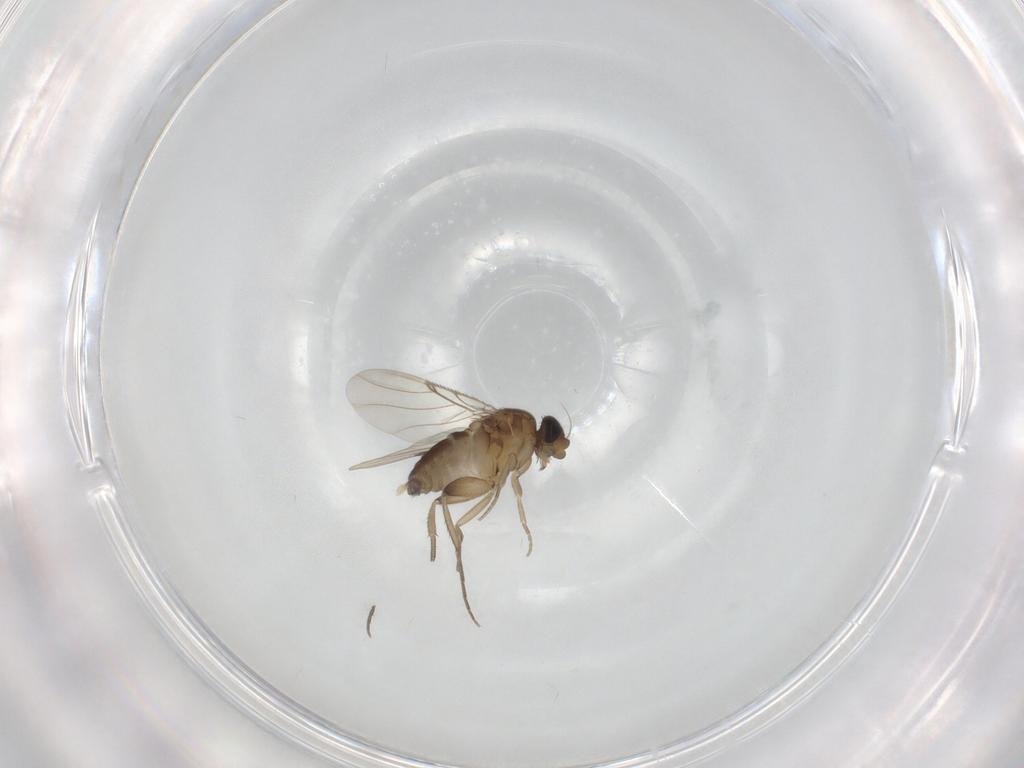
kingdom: Animalia
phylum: Arthropoda
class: Insecta
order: Diptera
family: Phoridae
